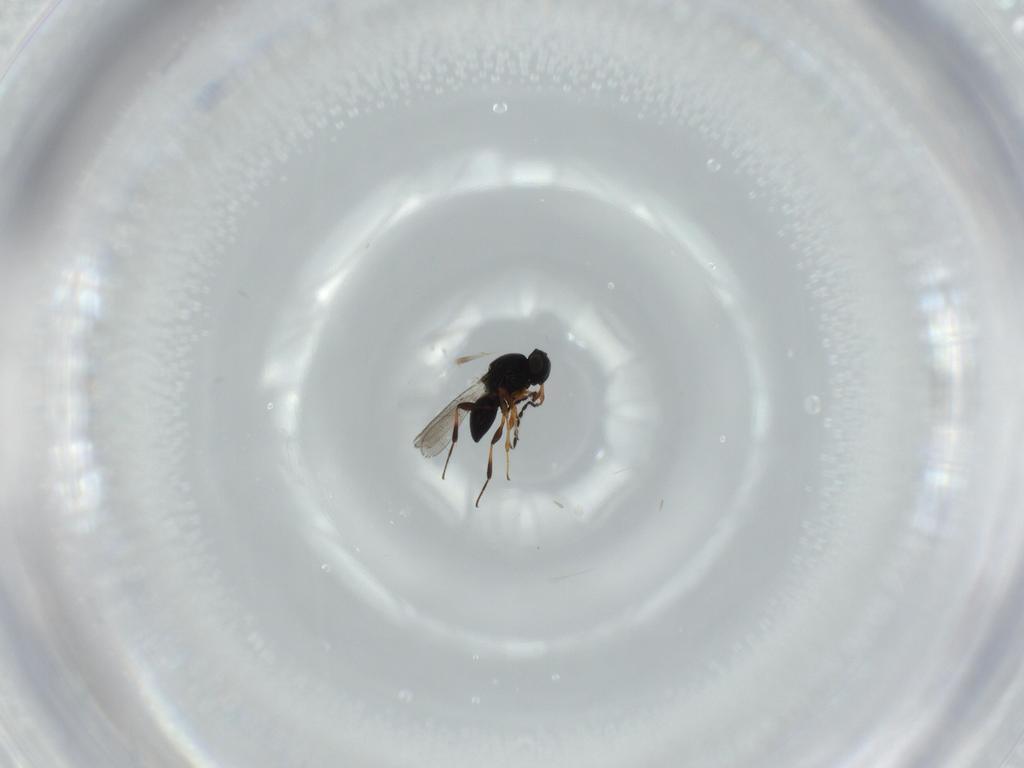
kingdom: Animalia
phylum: Arthropoda
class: Insecta
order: Hymenoptera
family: Platygastridae
